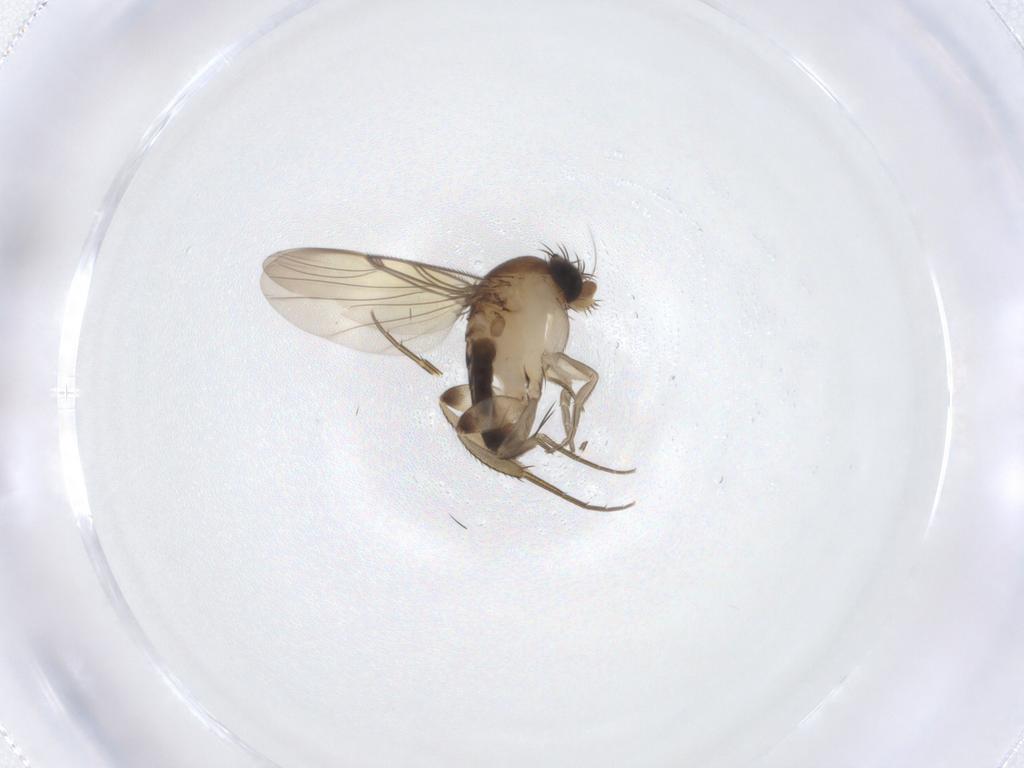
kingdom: Animalia
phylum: Arthropoda
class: Insecta
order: Diptera
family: Phoridae
